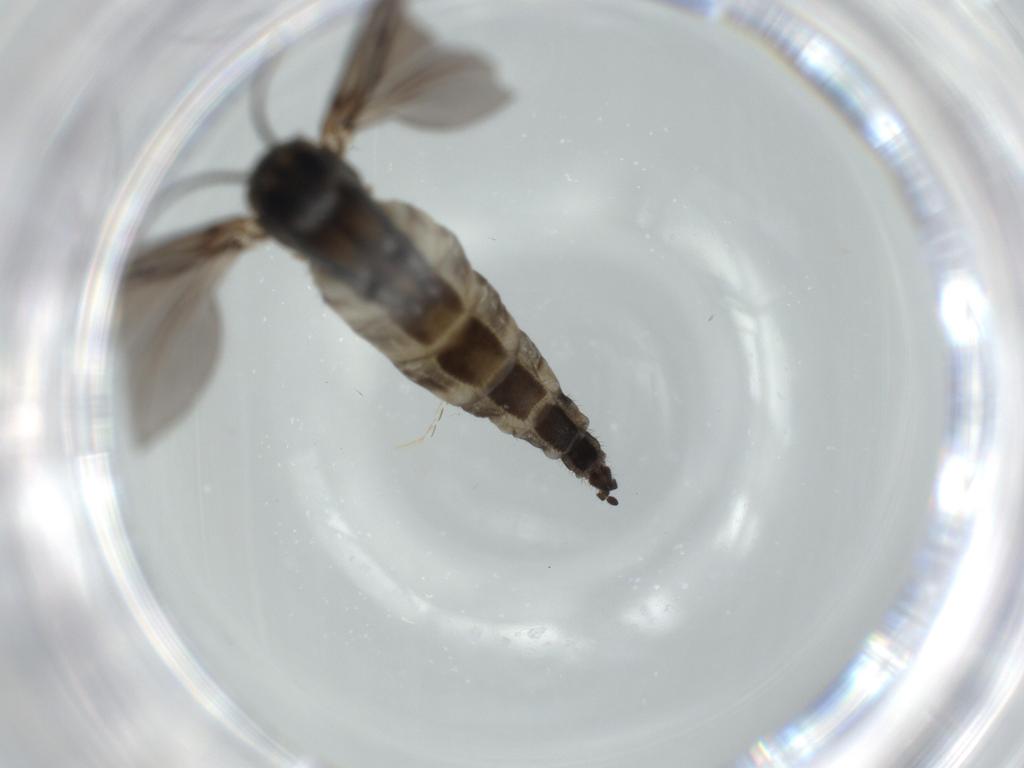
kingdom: Animalia
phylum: Arthropoda
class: Insecta
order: Diptera
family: Sciaridae
